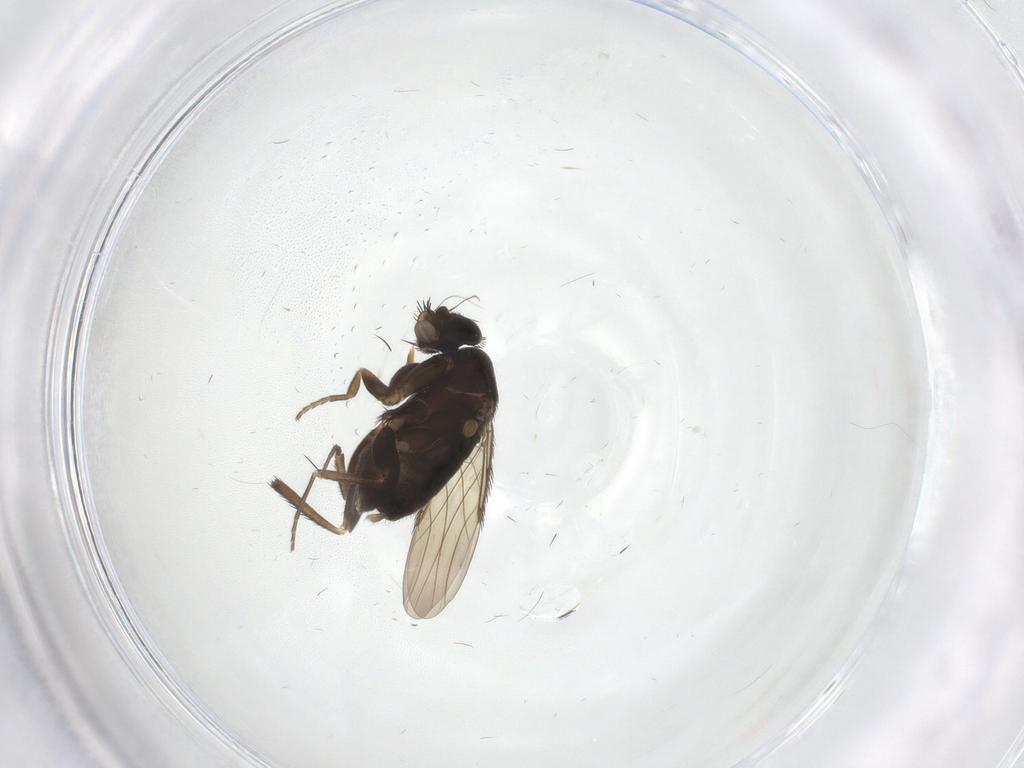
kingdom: Animalia
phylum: Arthropoda
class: Insecta
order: Diptera
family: Phoridae
